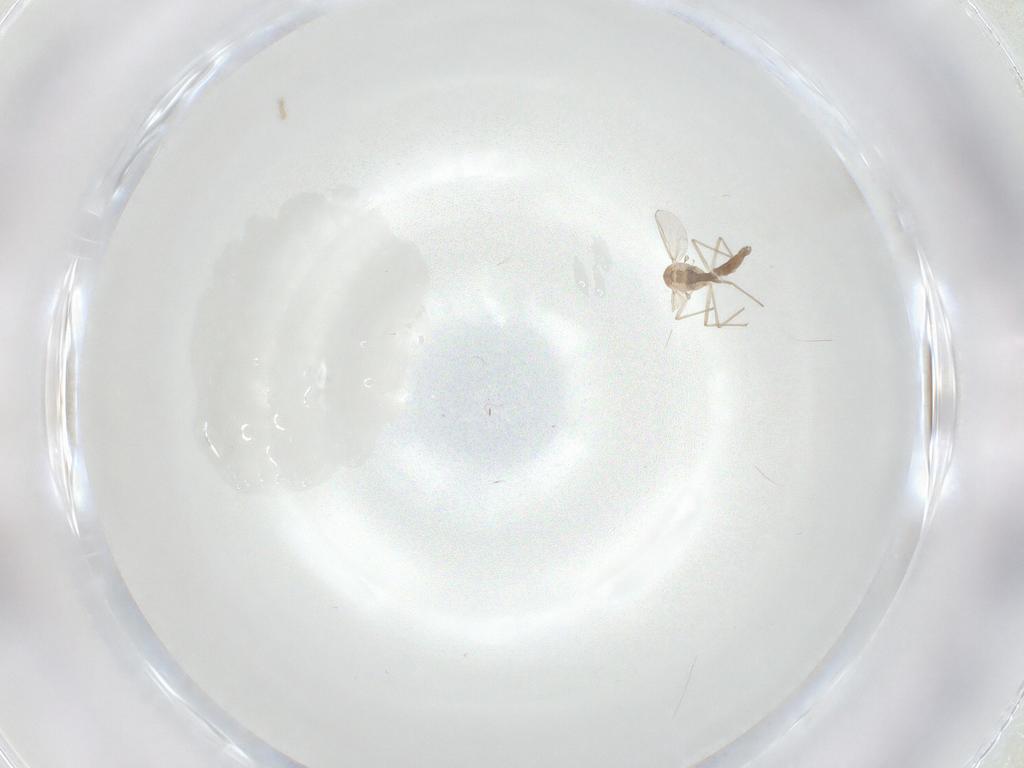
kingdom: Animalia
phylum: Arthropoda
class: Insecta
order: Diptera
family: Chironomidae
